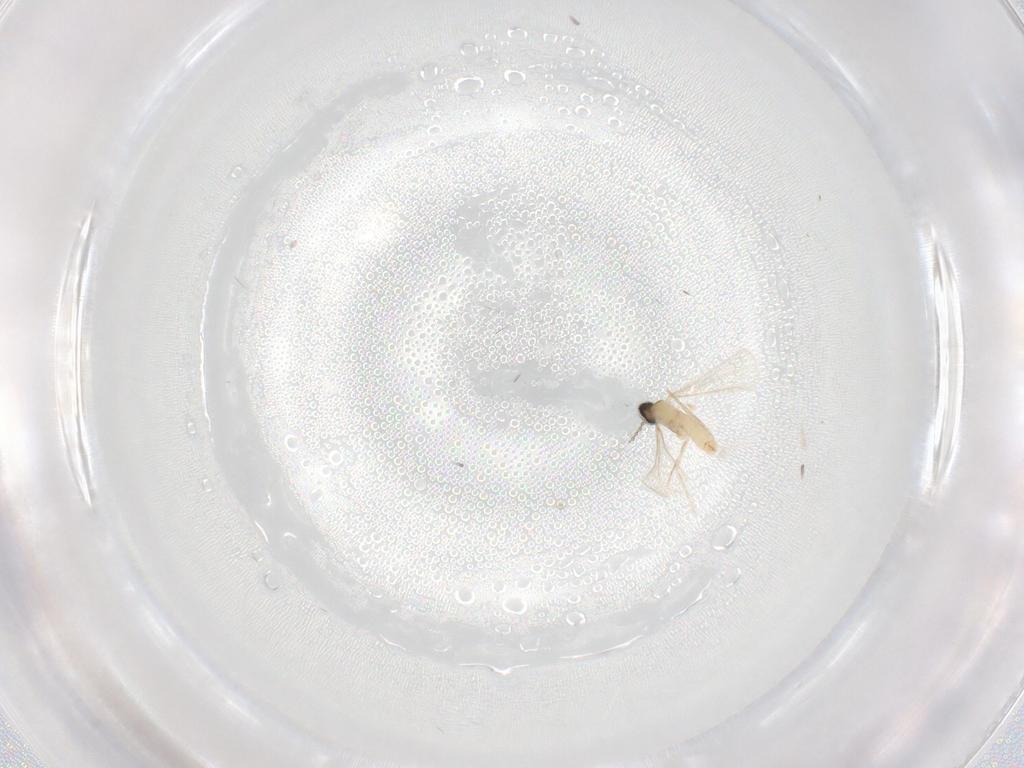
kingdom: Animalia
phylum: Arthropoda
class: Insecta
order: Diptera
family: Cecidomyiidae
